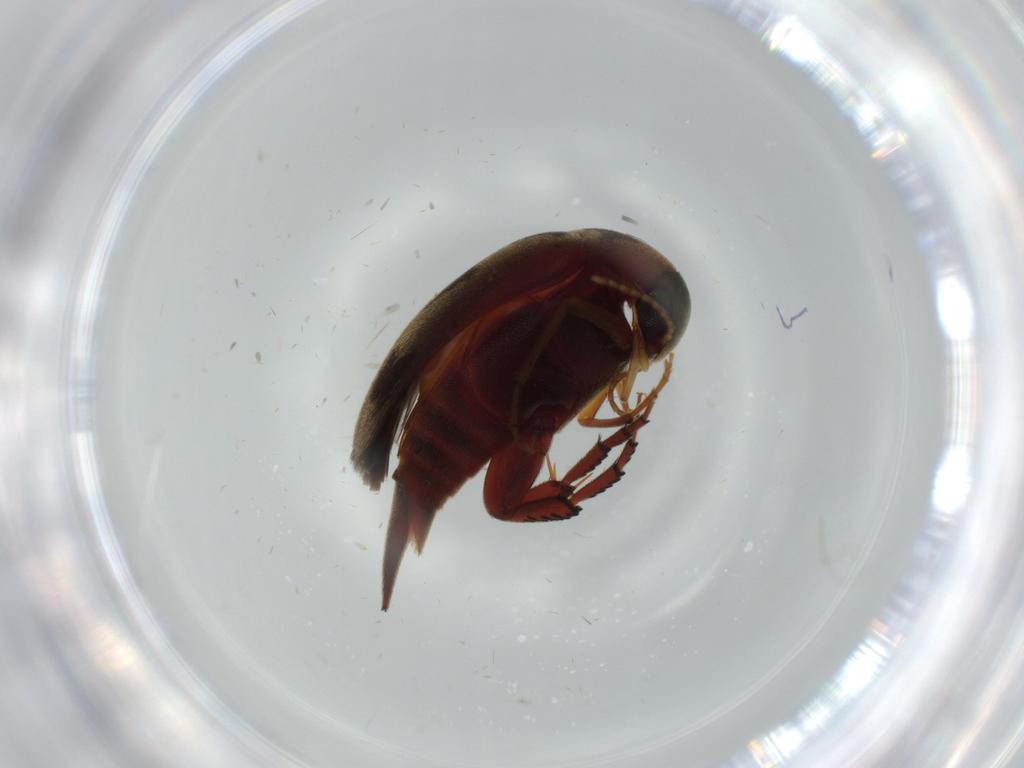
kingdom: Animalia
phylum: Arthropoda
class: Insecta
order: Coleoptera
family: Mordellidae
